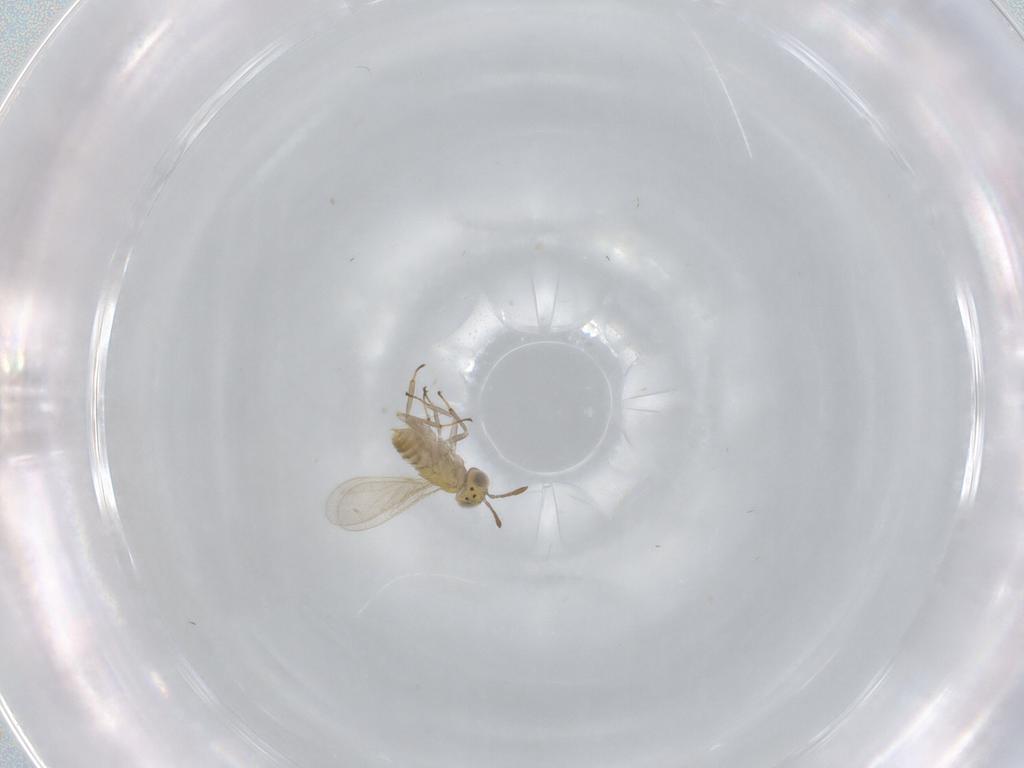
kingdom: Animalia
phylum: Arthropoda
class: Insecta
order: Hymenoptera
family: Aphelinidae
